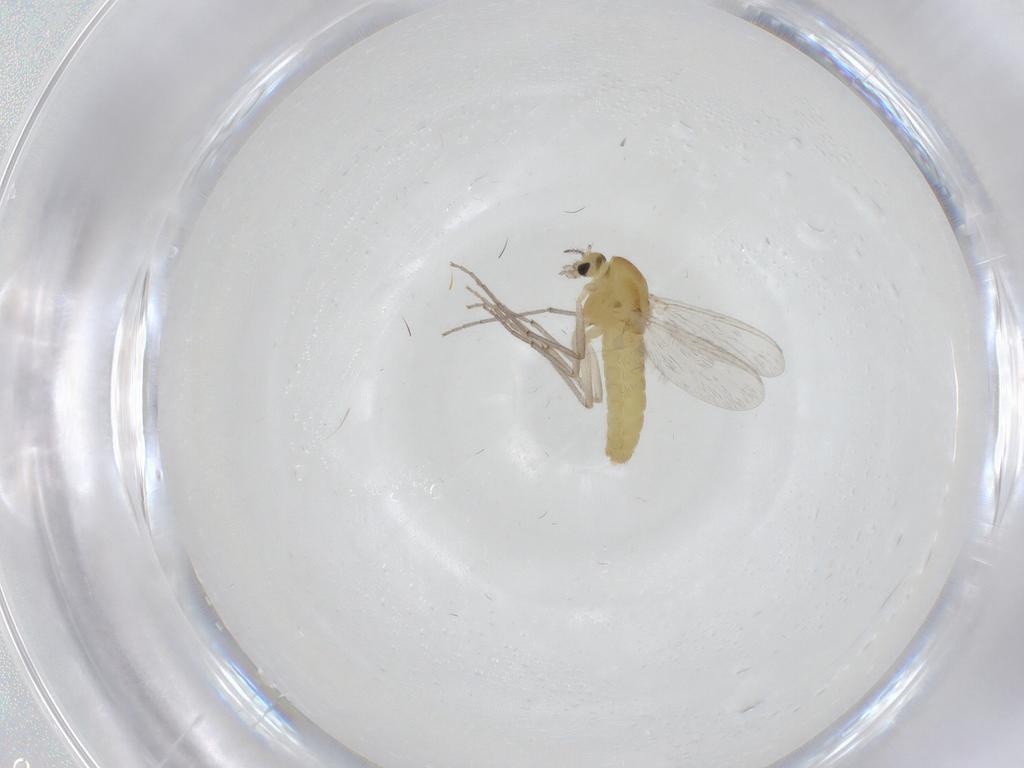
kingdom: Animalia
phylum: Arthropoda
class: Insecta
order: Diptera
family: Chironomidae
